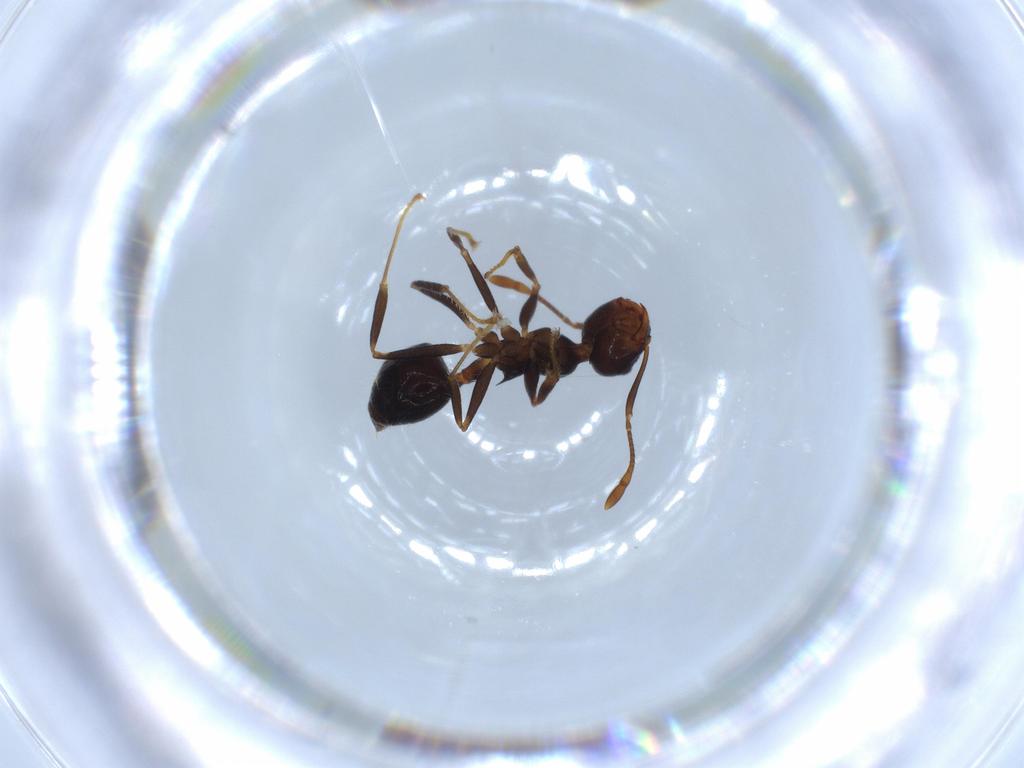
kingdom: Animalia
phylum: Arthropoda
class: Insecta
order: Hymenoptera
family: Formicidae
